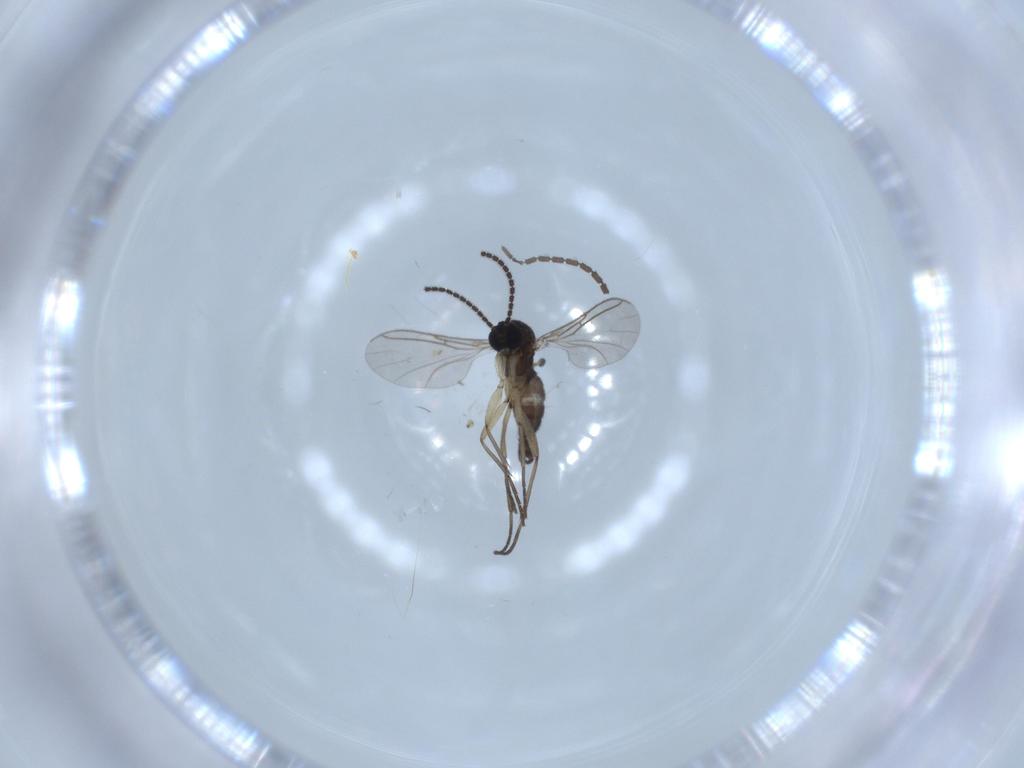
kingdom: Animalia
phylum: Arthropoda
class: Insecta
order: Diptera
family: Sciaridae
